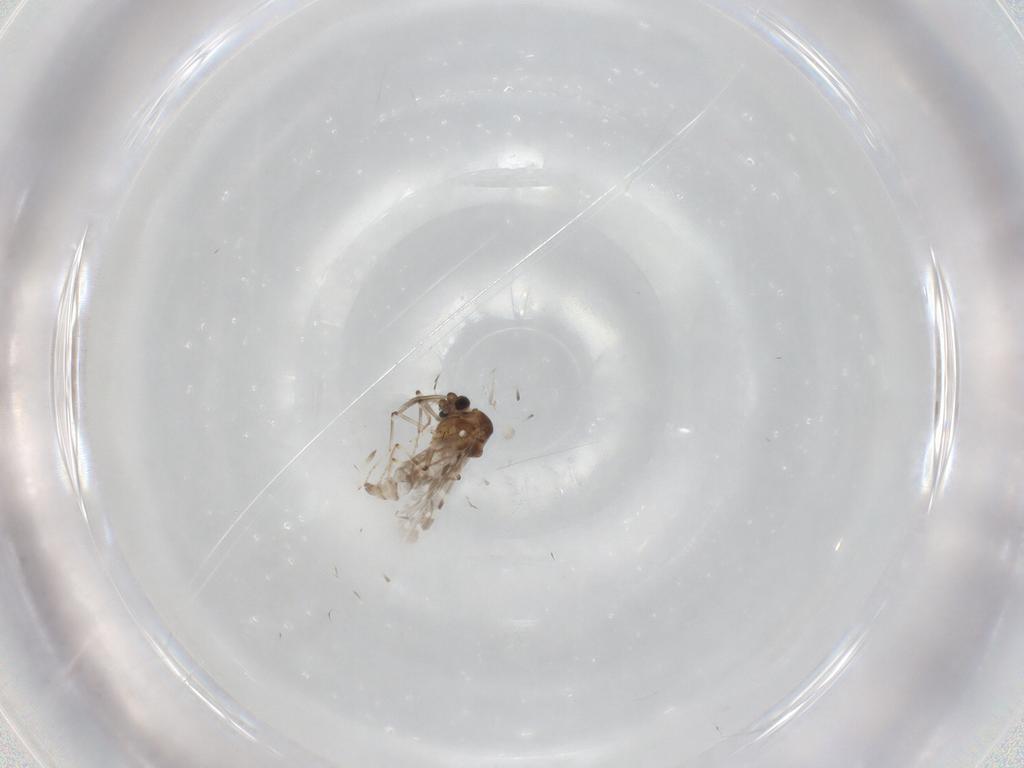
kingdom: Animalia
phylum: Arthropoda
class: Insecta
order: Diptera
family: Ceratopogonidae
